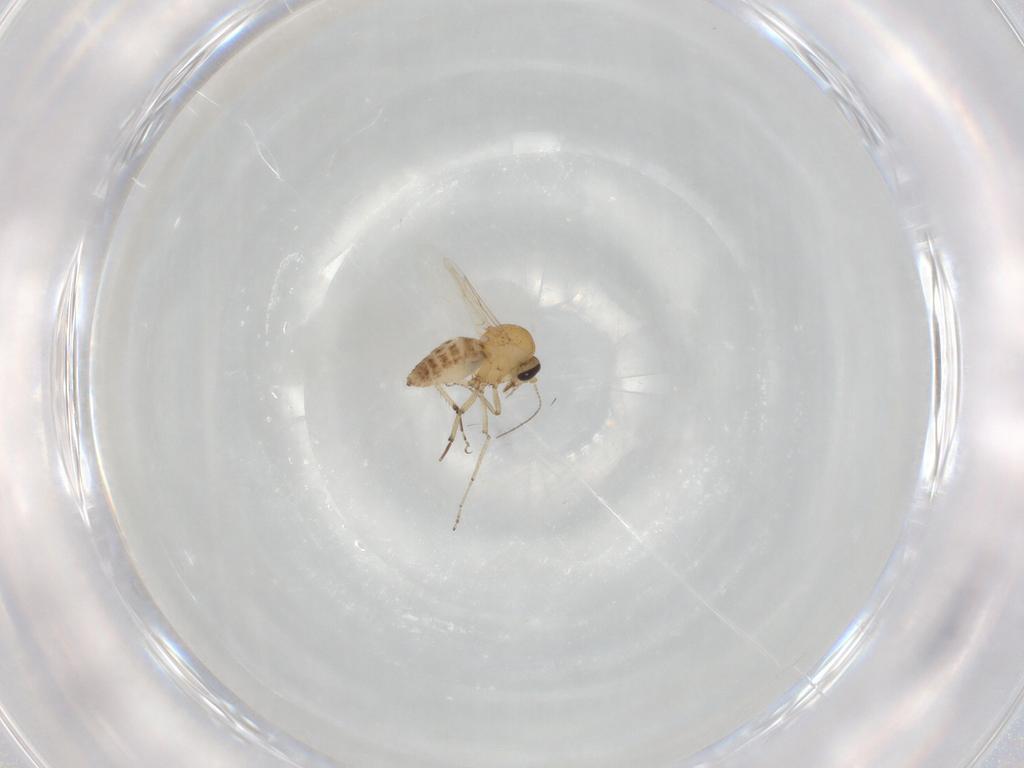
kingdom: Animalia
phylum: Arthropoda
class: Insecta
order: Diptera
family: Ceratopogonidae
